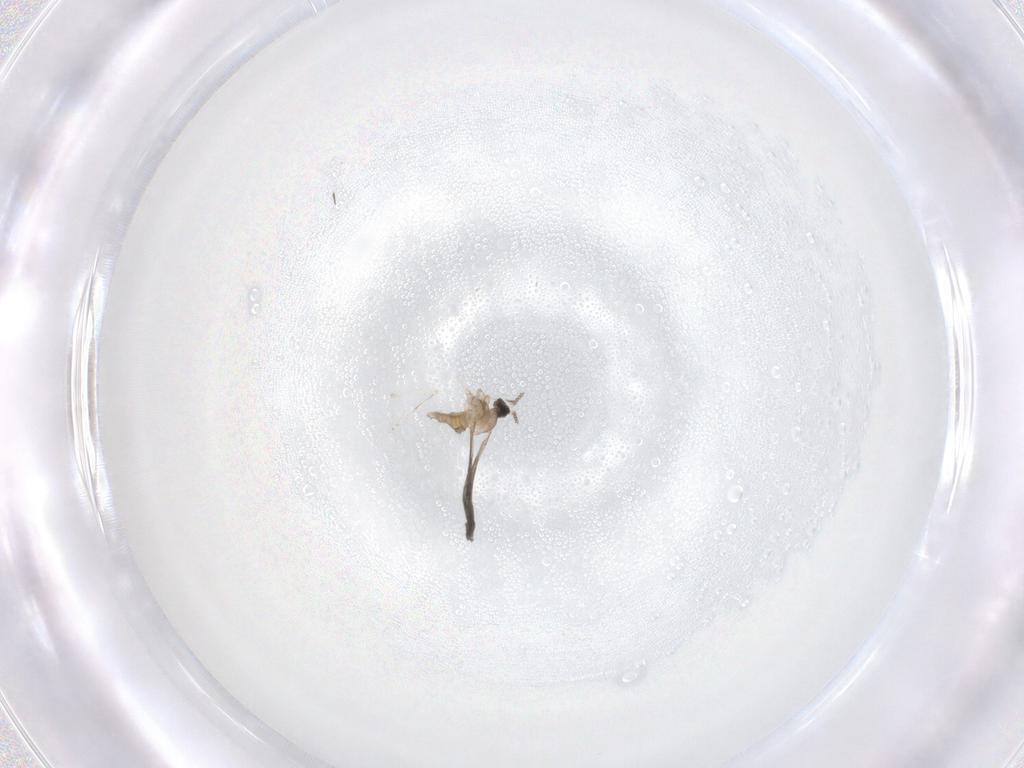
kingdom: Animalia
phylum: Arthropoda
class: Insecta
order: Diptera
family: Cecidomyiidae
